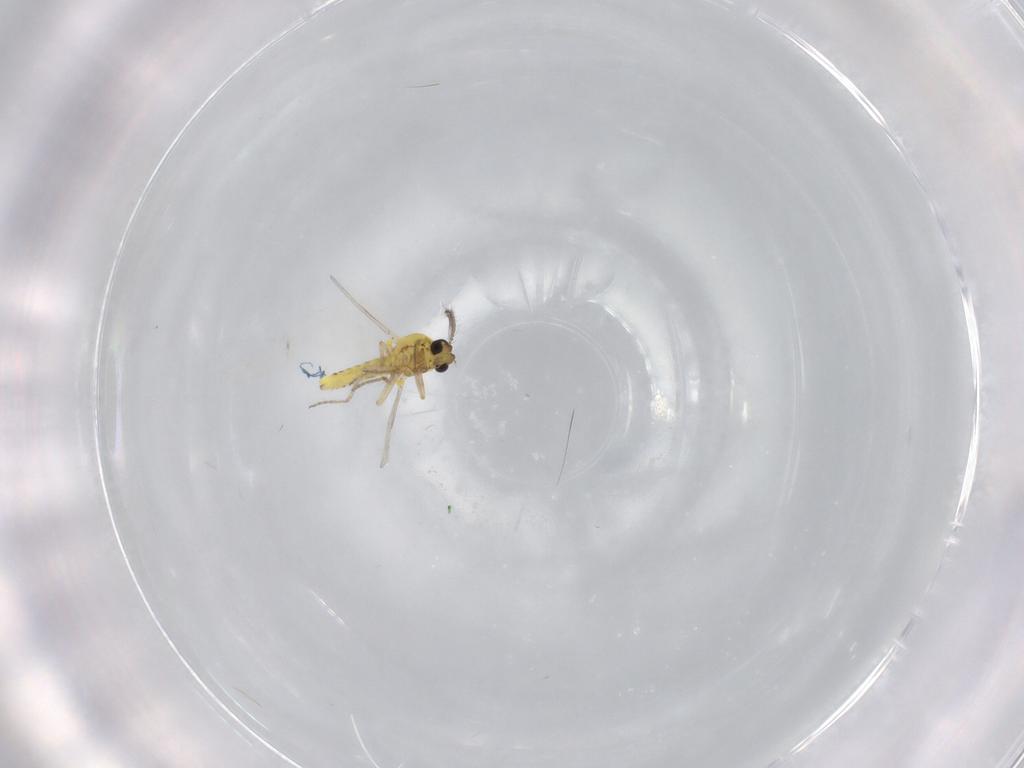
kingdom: Animalia
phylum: Arthropoda
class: Insecta
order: Diptera
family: Ceratopogonidae
